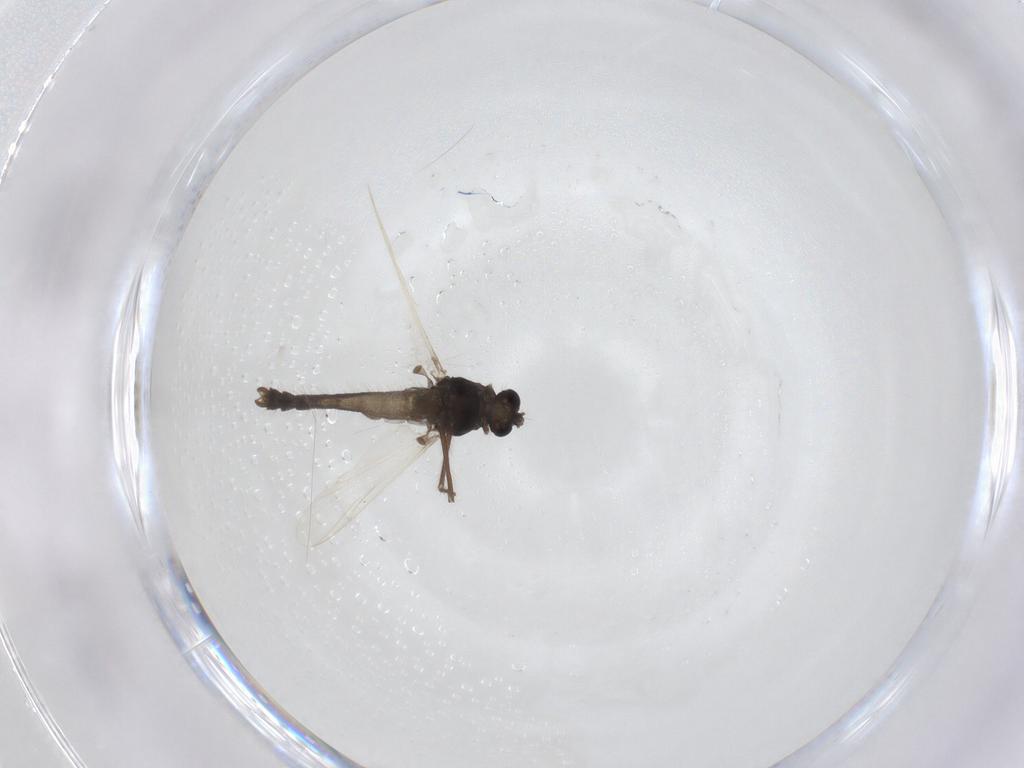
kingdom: Animalia
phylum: Arthropoda
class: Insecta
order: Diptera
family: Chironomidae
